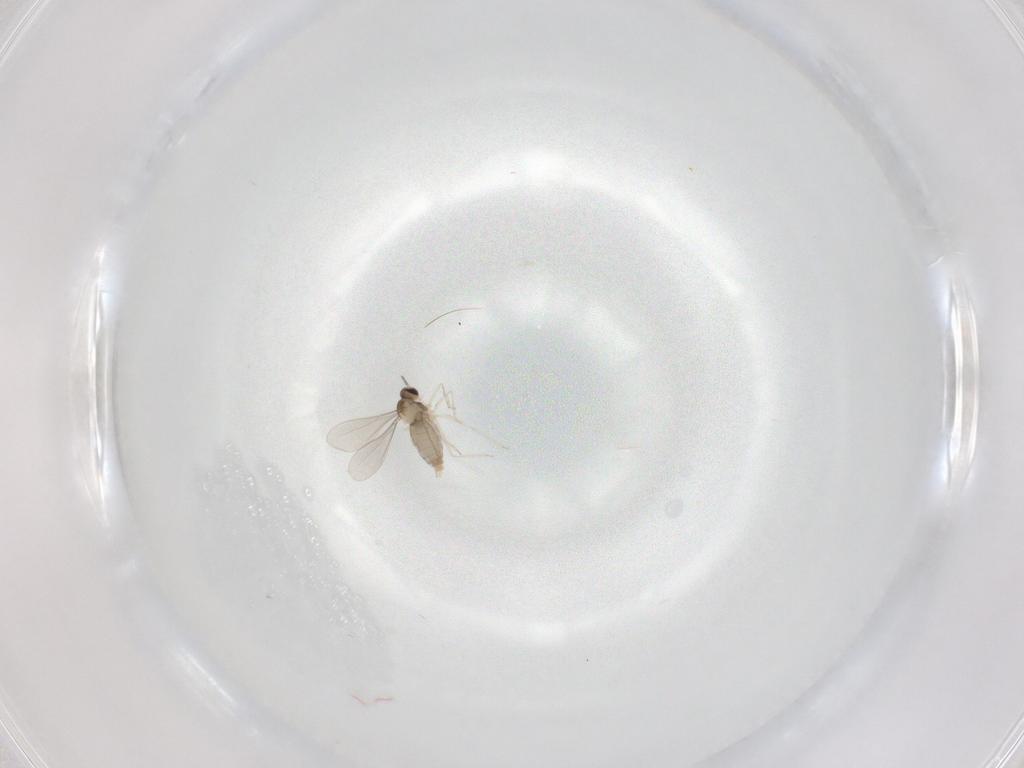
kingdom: Animalia
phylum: Arthropoda
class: Insecta
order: Diptera
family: Cecidomyiidae
